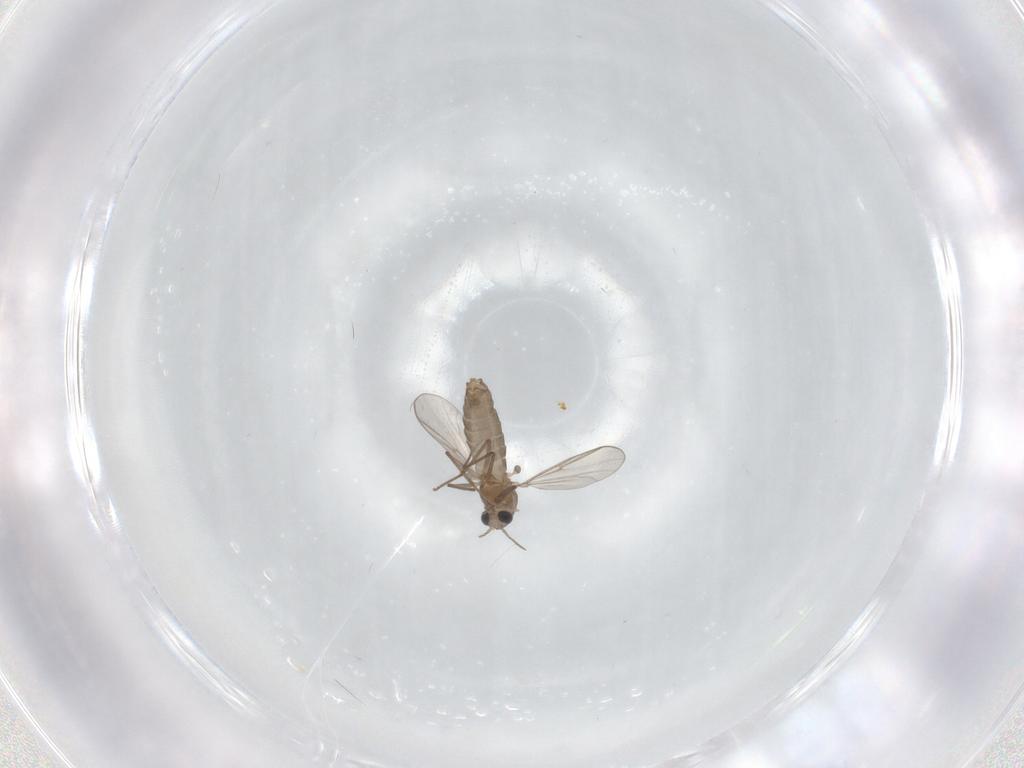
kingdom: Animalia
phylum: Arthropoda
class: Insecta
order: Diptera
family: Chironomidae
